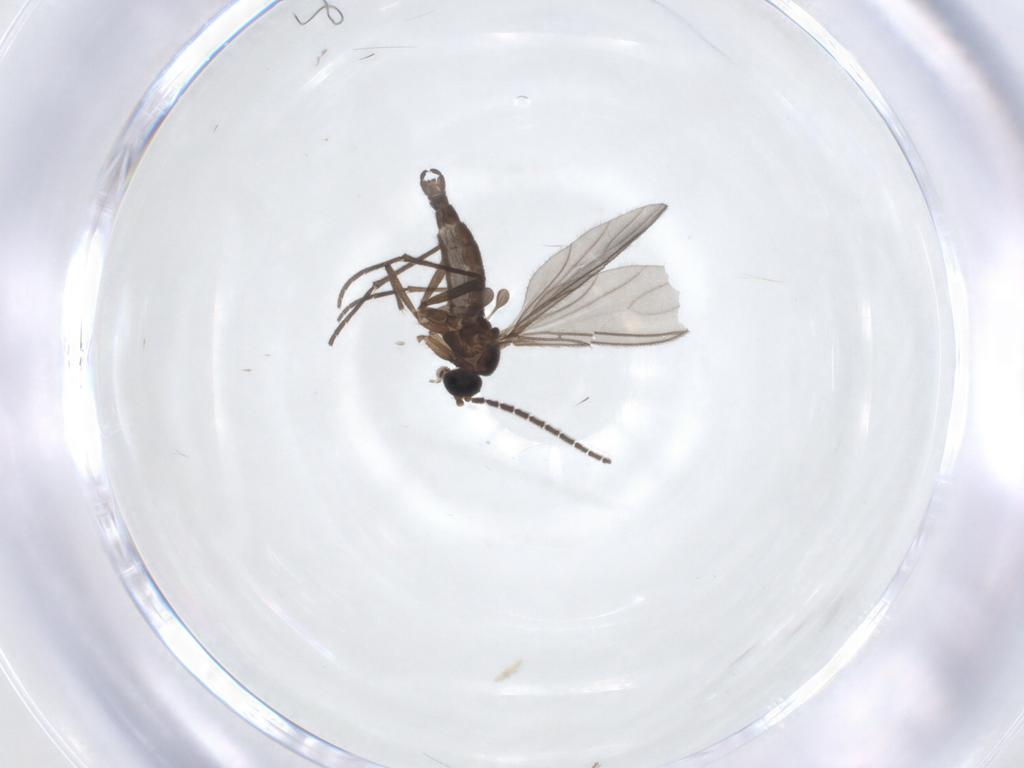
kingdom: Animalia
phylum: Arthropoda
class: Insecta
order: Diptera
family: Sciaridae
